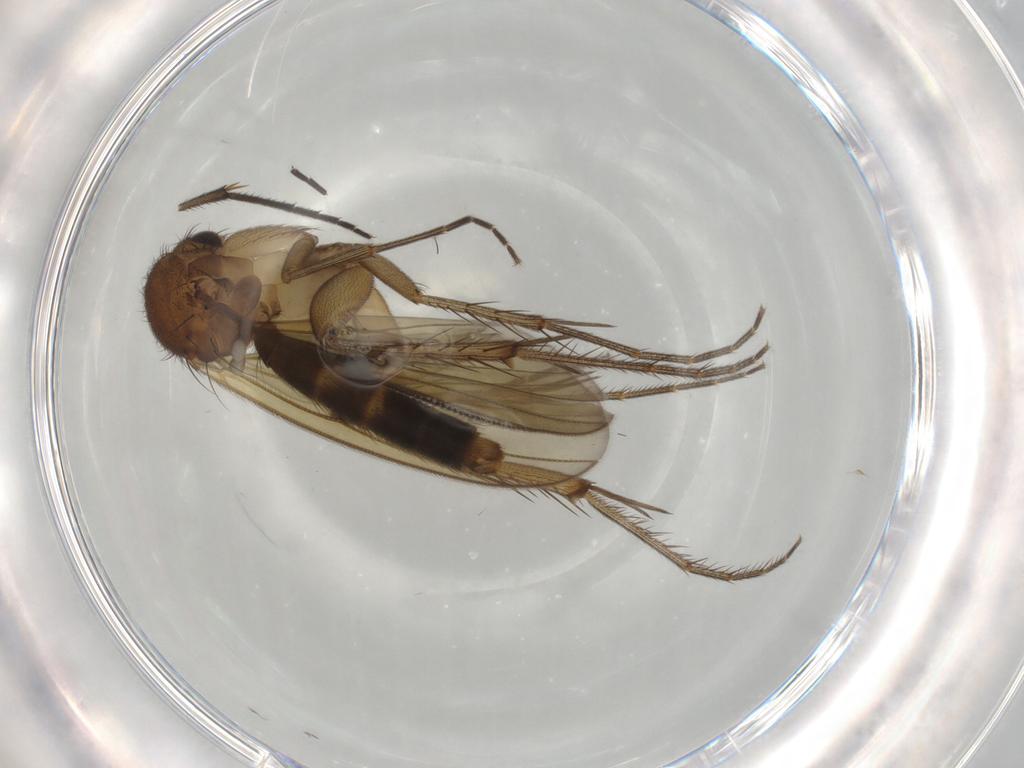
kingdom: Animalia
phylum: Arthropoda
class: Insecta
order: Diptera
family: Mycetophilidae
